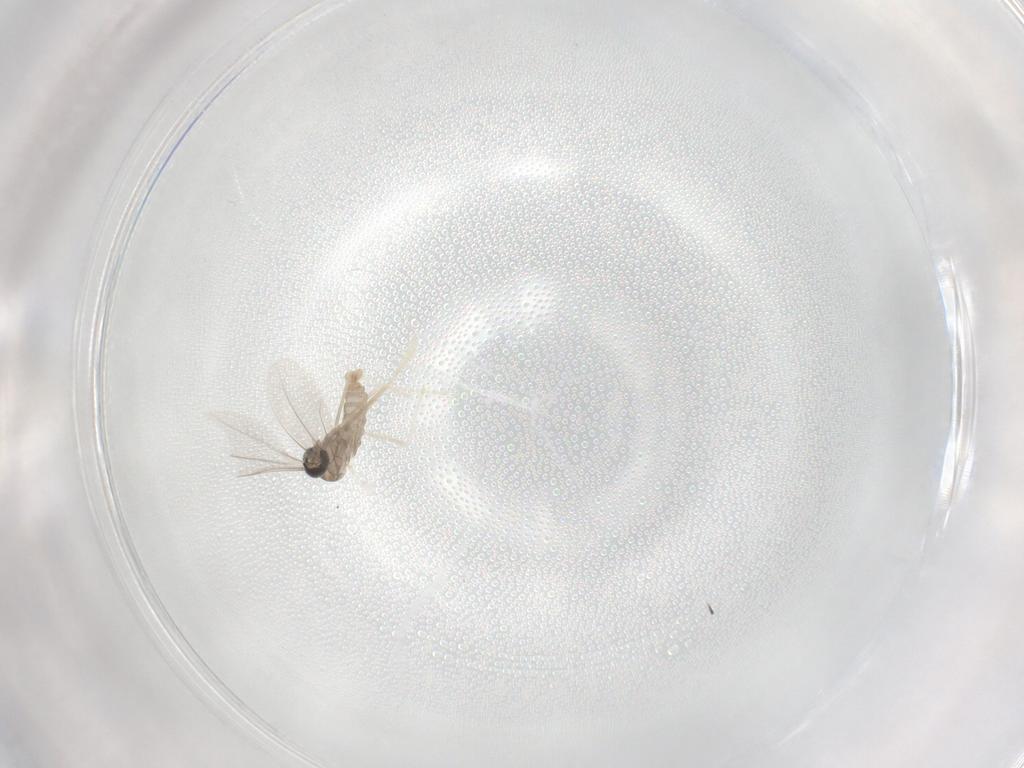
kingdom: Animalia
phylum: Arthropoda
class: Insecta
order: Diptera
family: Cecidomyiidae
